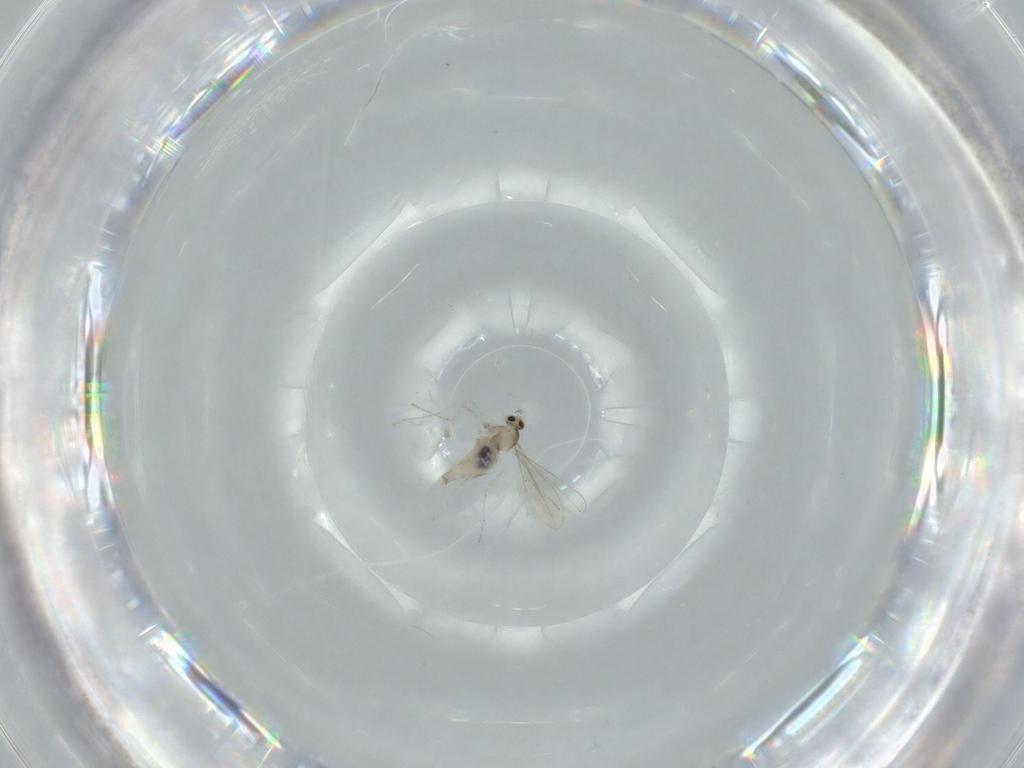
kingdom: Animalia
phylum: Arthropoda
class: Insecta
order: Diptera
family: Cecidomyiidae
